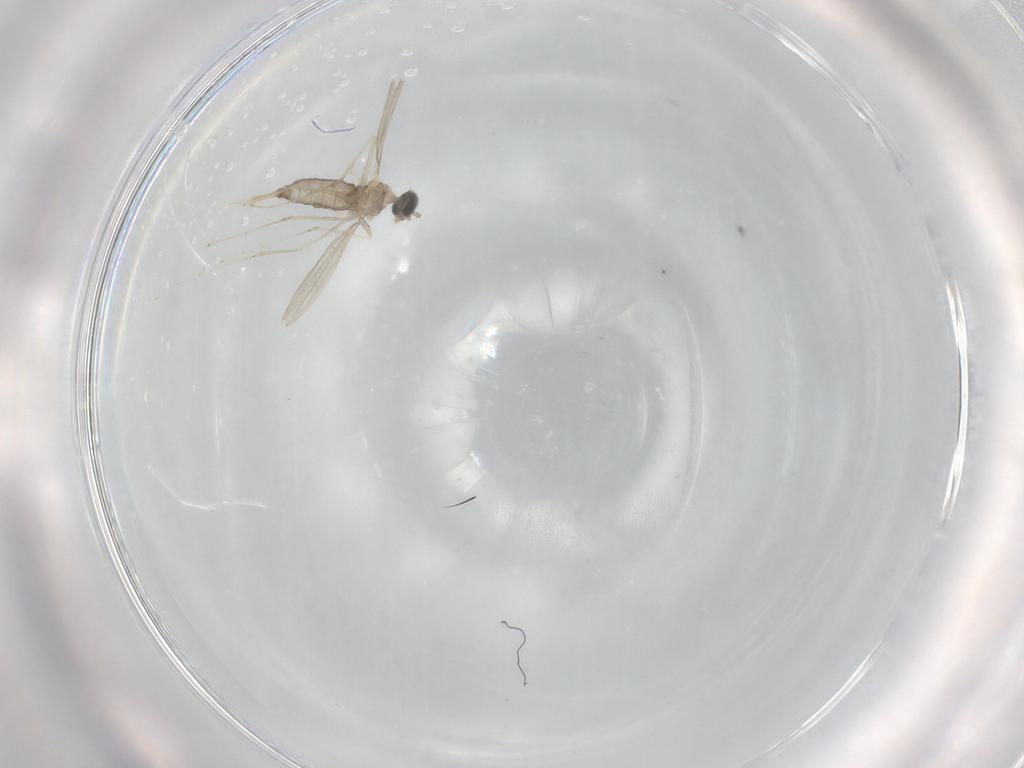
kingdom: Animalia
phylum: Arthropoda
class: Insecta
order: Diptera
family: Cecidomyiidae
